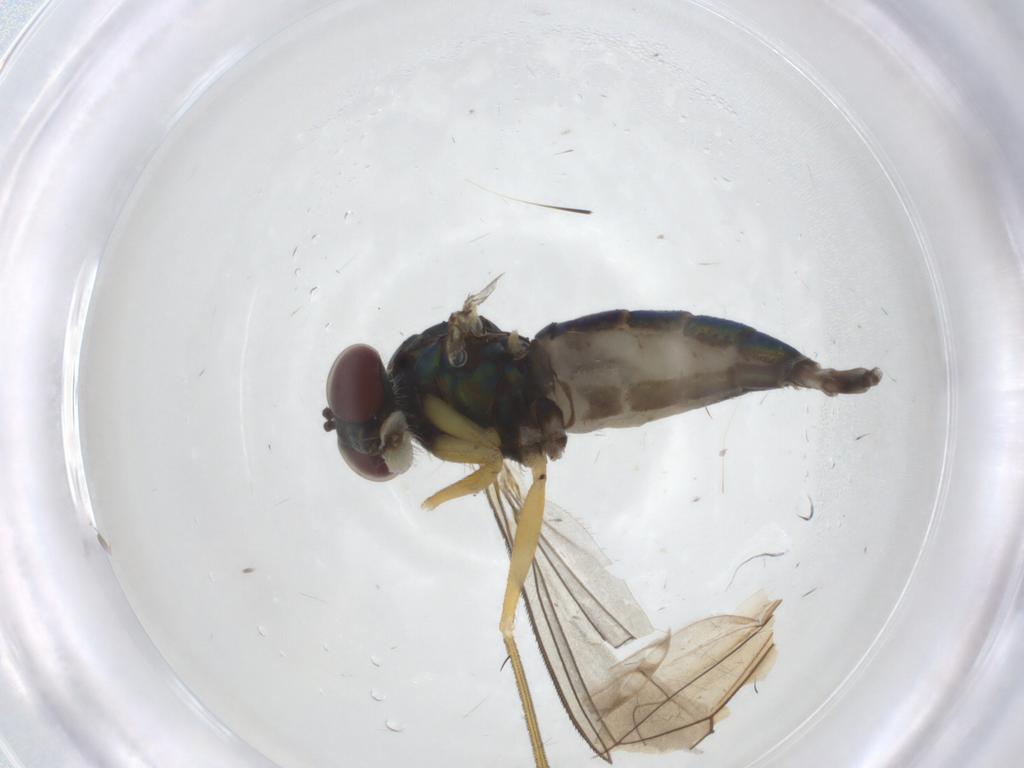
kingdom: Animalia
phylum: Arthropoda
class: Insecta
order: Diptera
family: Dolichopodidae
